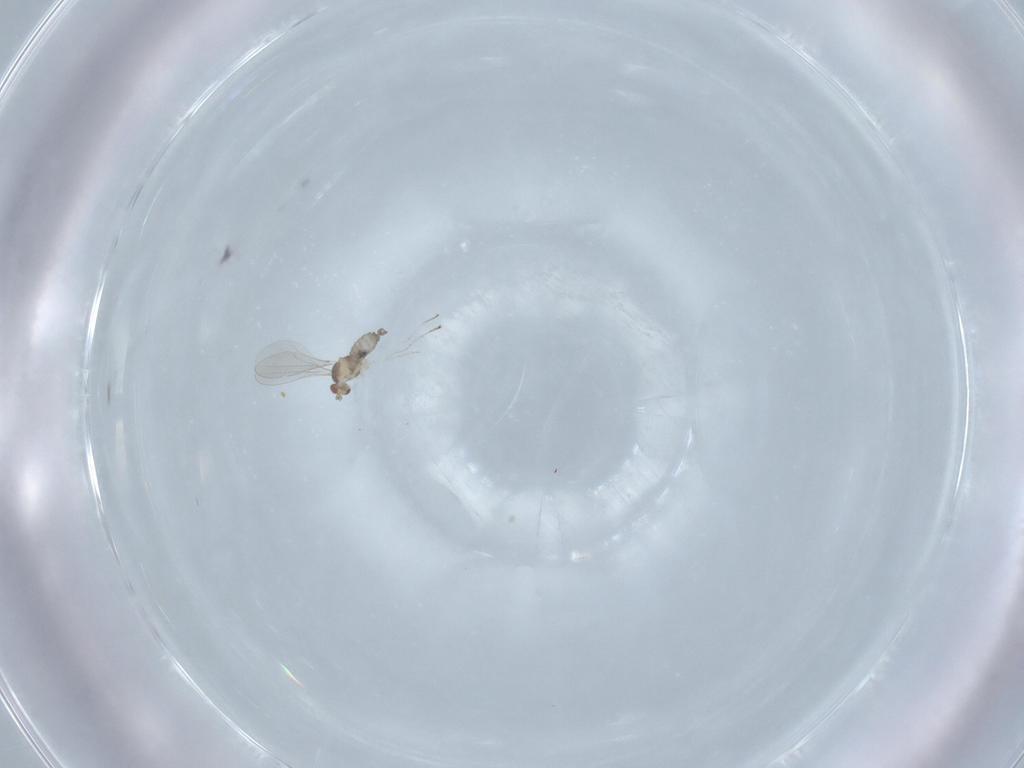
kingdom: Animalia
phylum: Arthropoda
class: Insecta
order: Diptera
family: Cecidomyiidae
